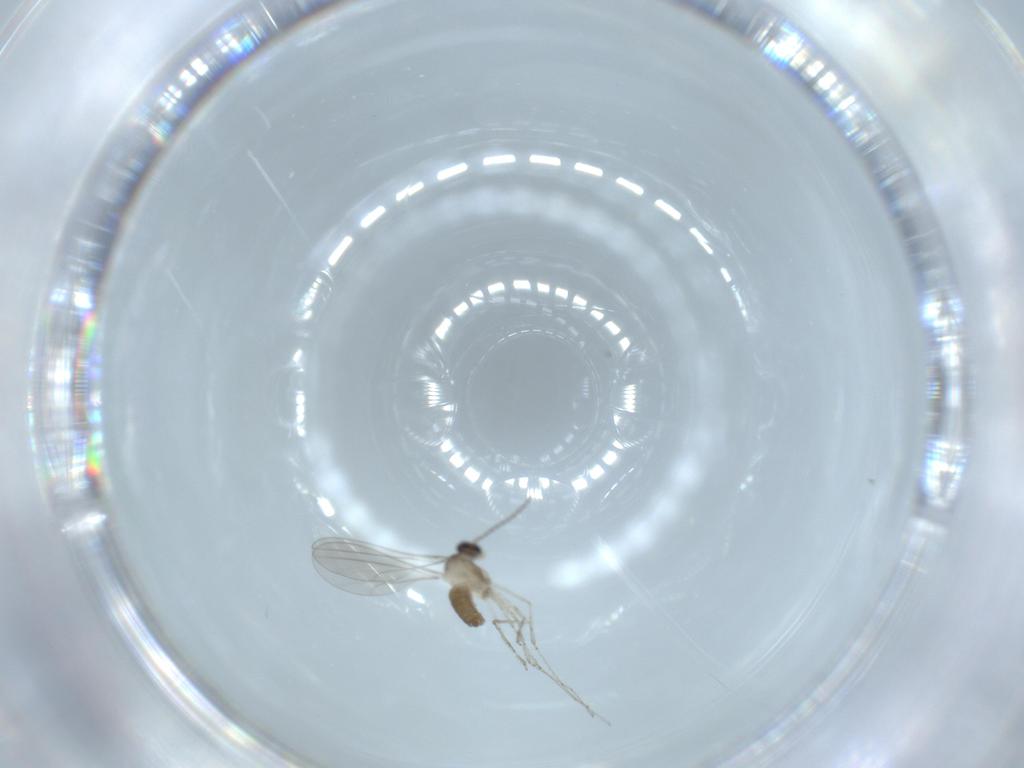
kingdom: Animalia
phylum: Arthropoda
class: Insecta
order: Diptera
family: Cecidomyiidae
